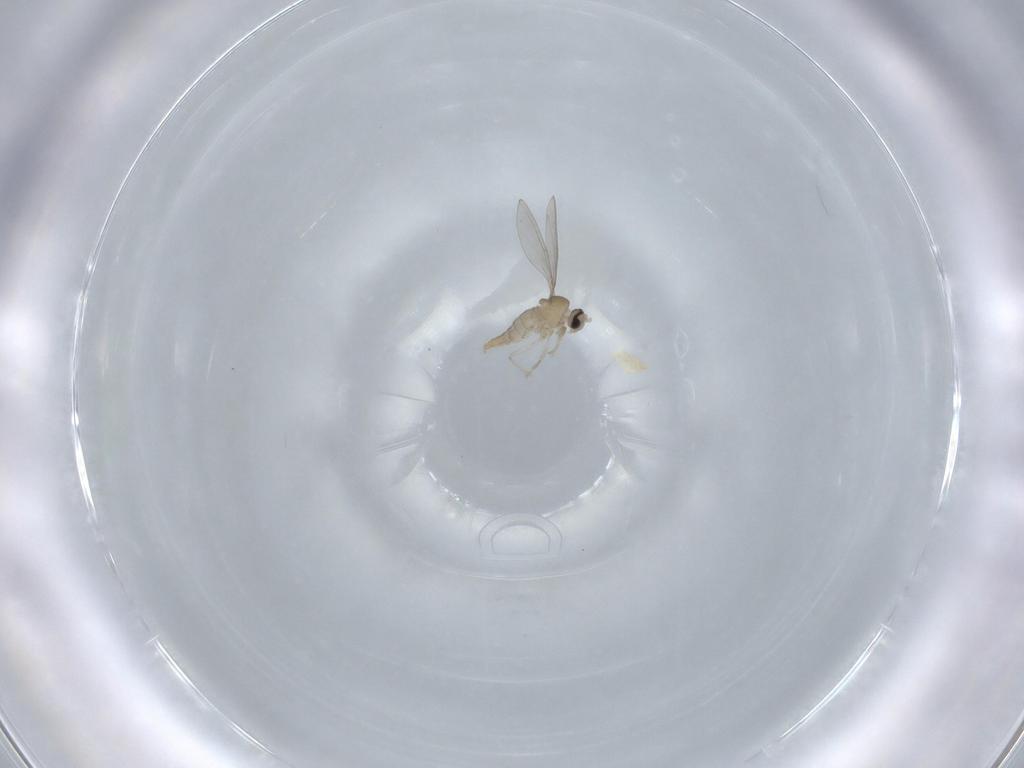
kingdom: Animalia
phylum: Arthropoda
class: Insecta
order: Diptera
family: Cecidomyiidae
